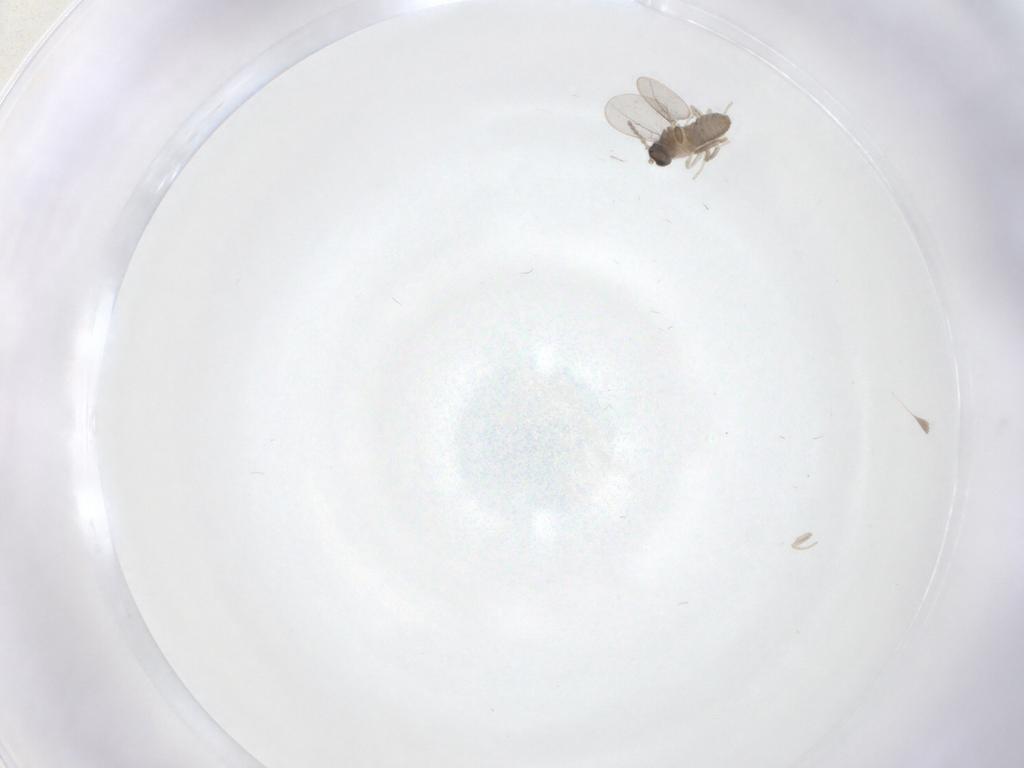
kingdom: Animalia
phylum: Arthropoda
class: Insecta
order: Diptera
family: Cecidomyiidae
